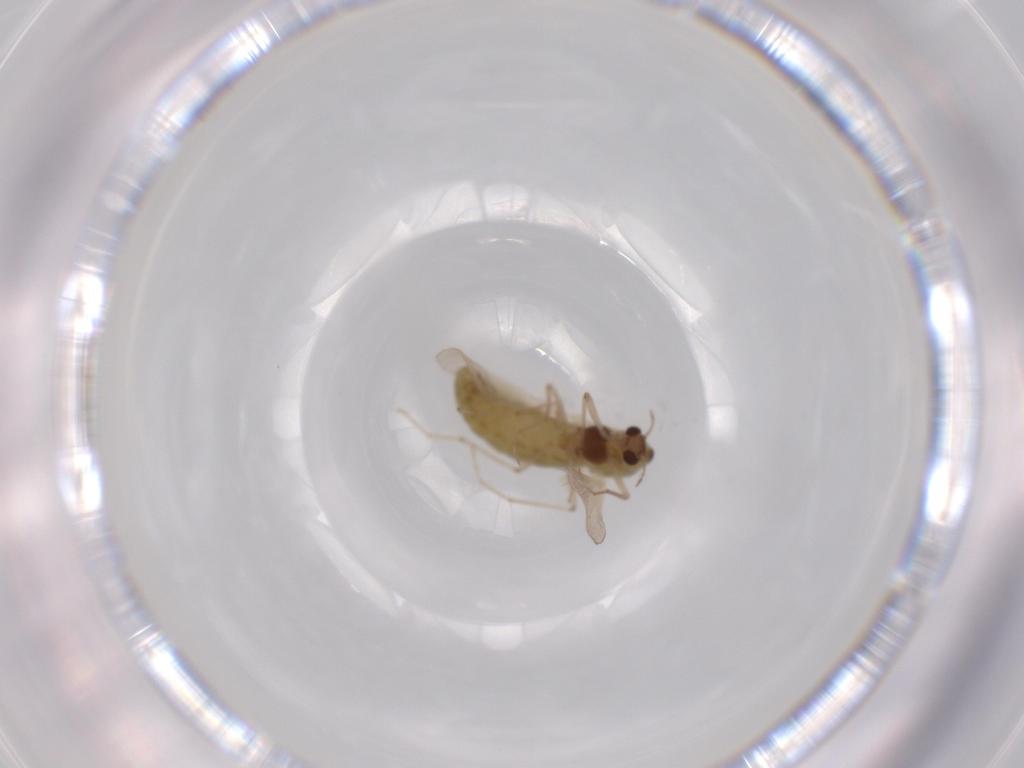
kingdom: Animalia
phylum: Arthropoda
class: Insecta
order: Diptera
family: Chironomidae
